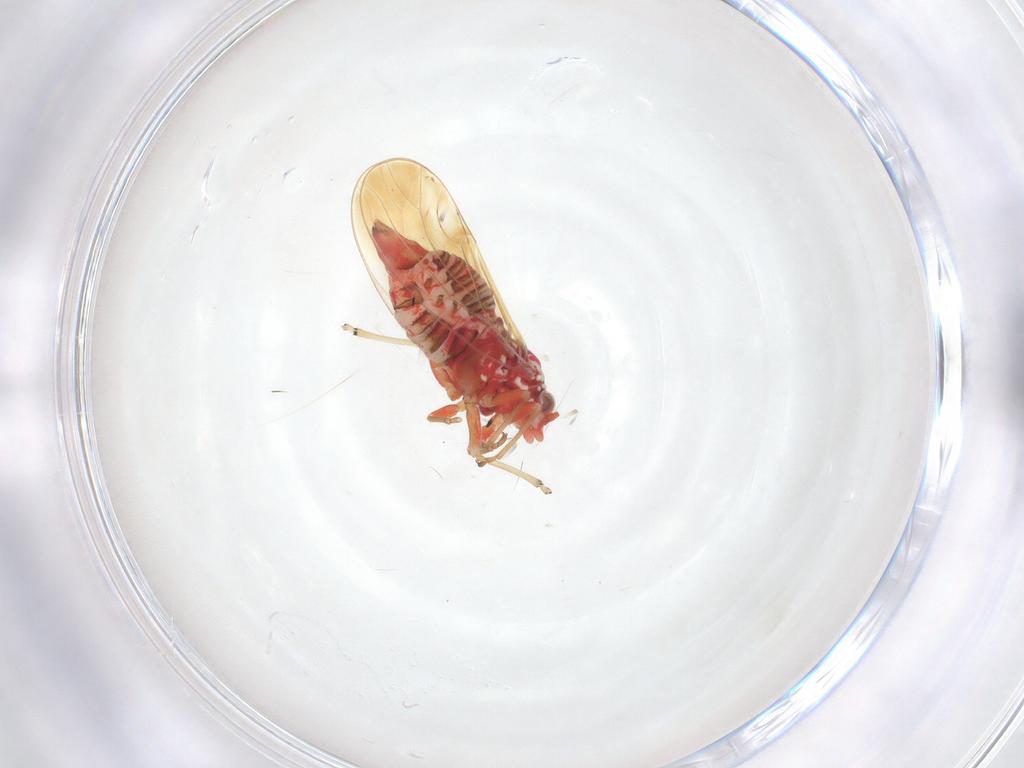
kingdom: Animalia
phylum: Arthropoda
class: Insecta
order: Hemiptera
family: Psyllidae
